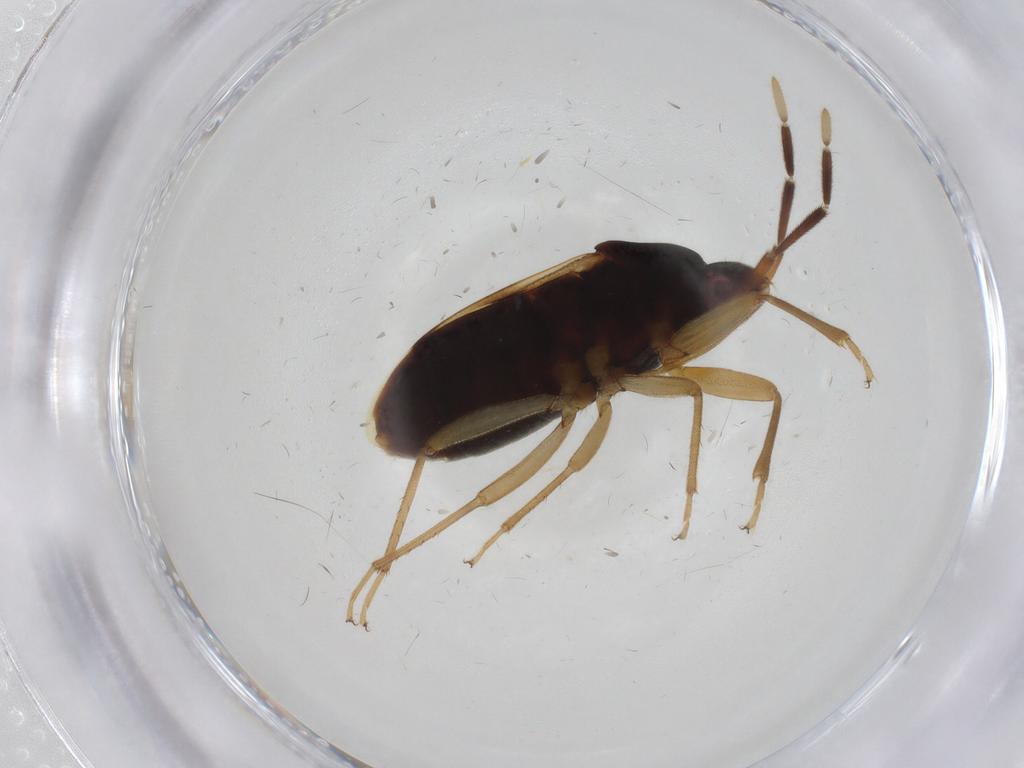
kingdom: Animalia
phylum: Arthropoda
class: Insecta
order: Hemiptera
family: Rhyparochromidae
